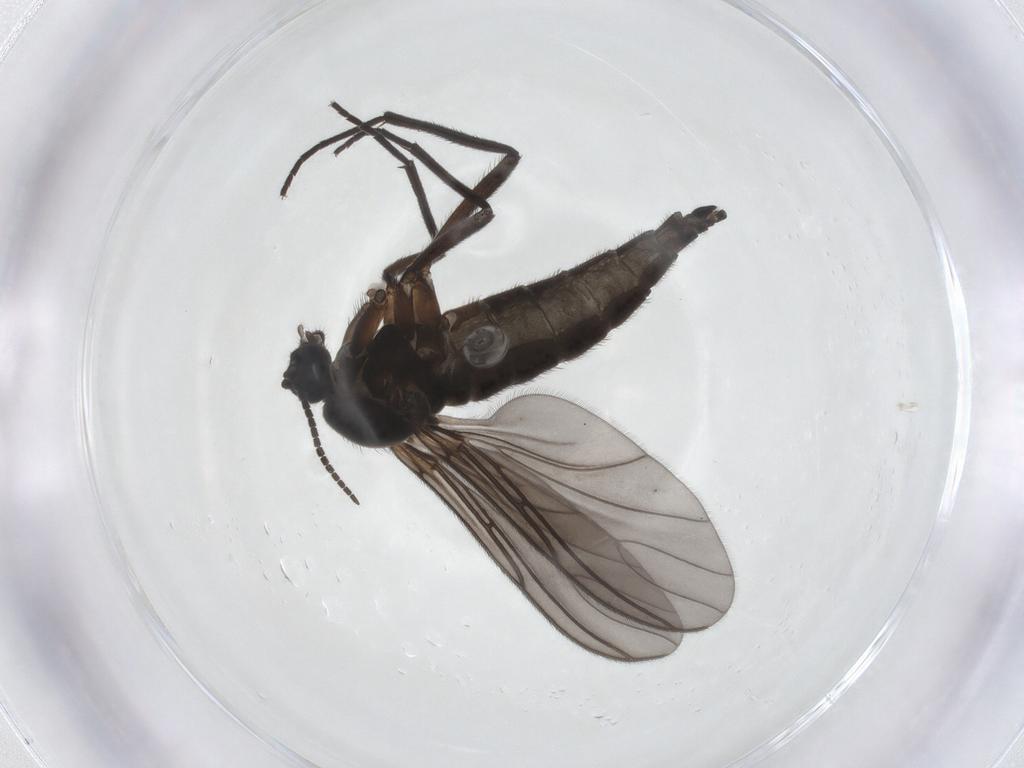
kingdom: Animalia
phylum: Arthropoda
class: Insecta
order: Diptera
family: Sciaridae
